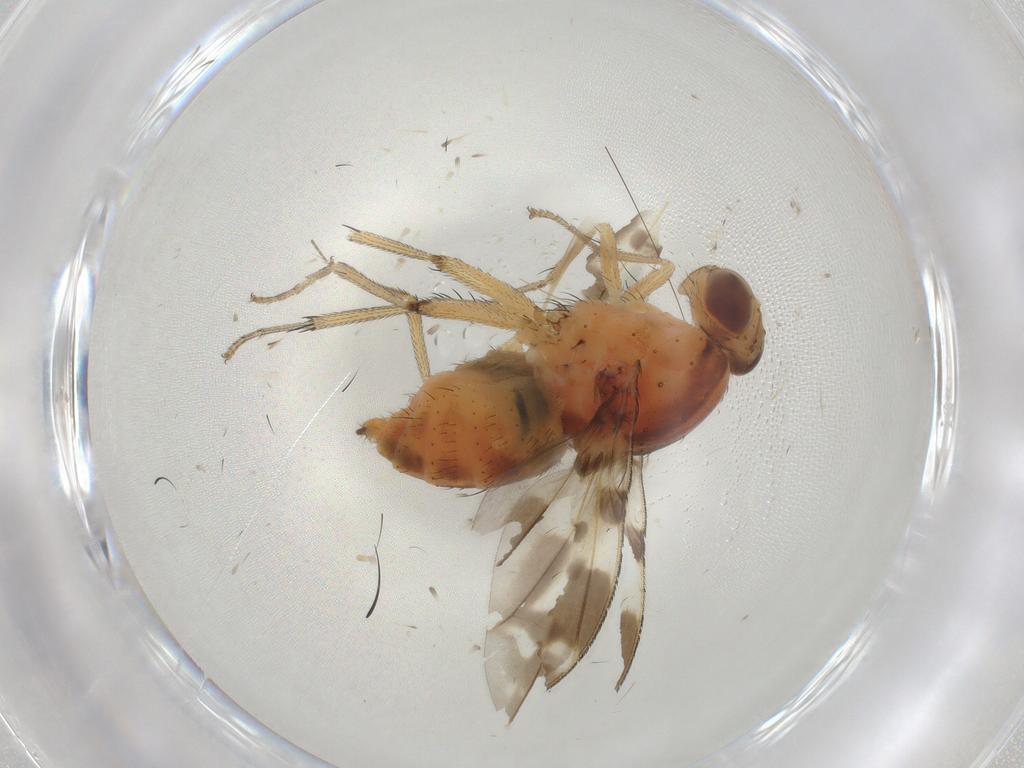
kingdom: Animalia
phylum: Arthropoda
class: Insecta
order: Diptera
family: Cecidomyiidae
